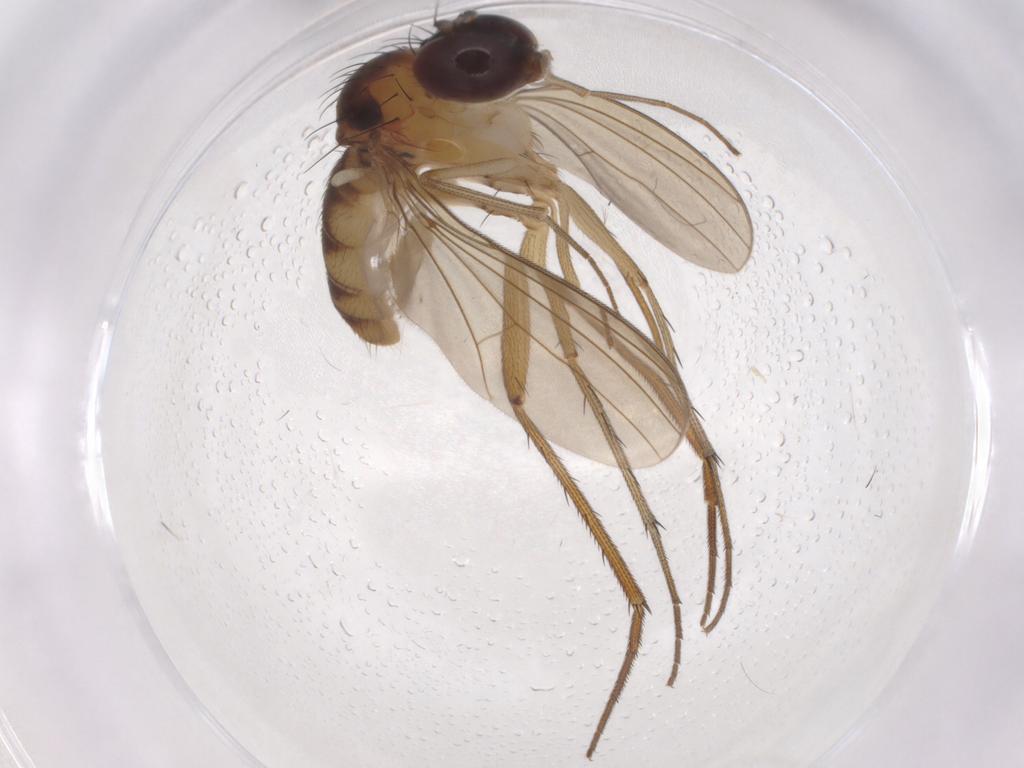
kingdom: Animalia
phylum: Arthropoda
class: Insecta
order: Diptera
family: Dolichopodidae
